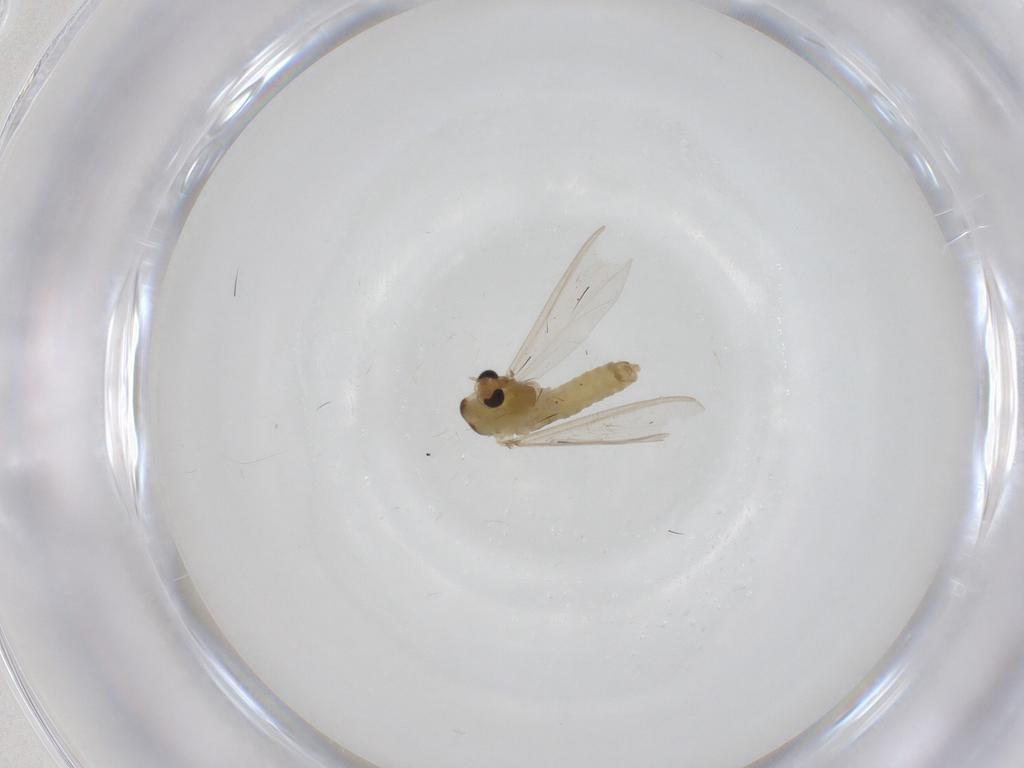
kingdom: Animalia
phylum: Arthropoda
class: Insecta
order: Diptera
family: Chironomidae
